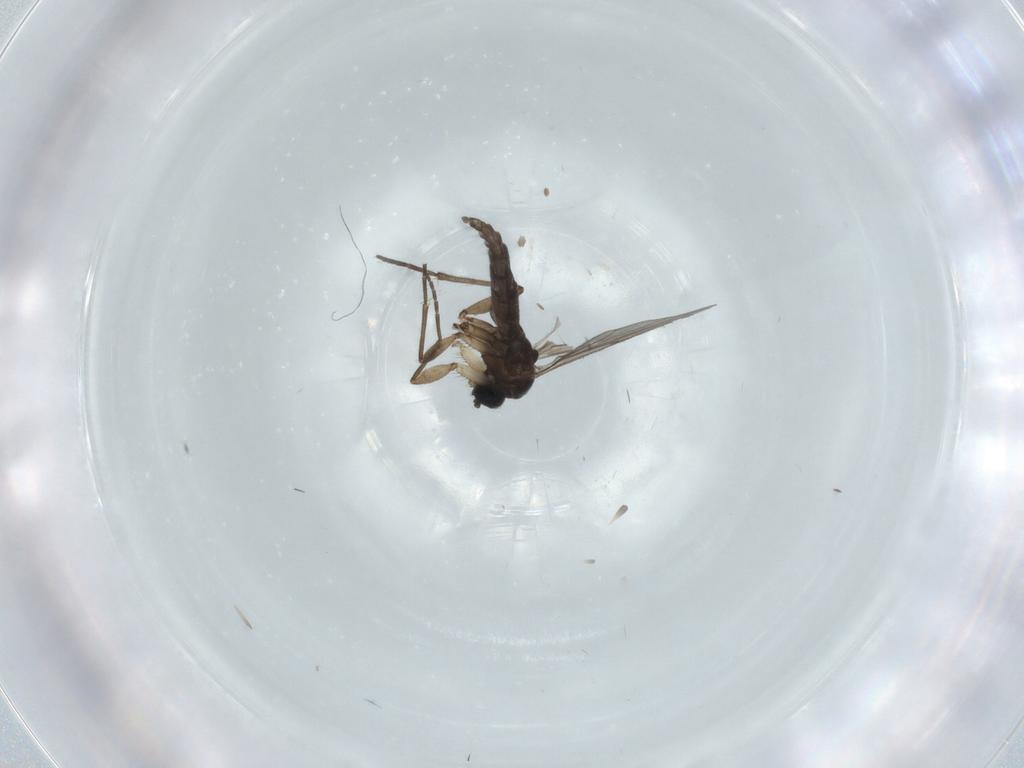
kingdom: Animalia
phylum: Arthropoda
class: Insecta
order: Diptera
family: Sciaridae
